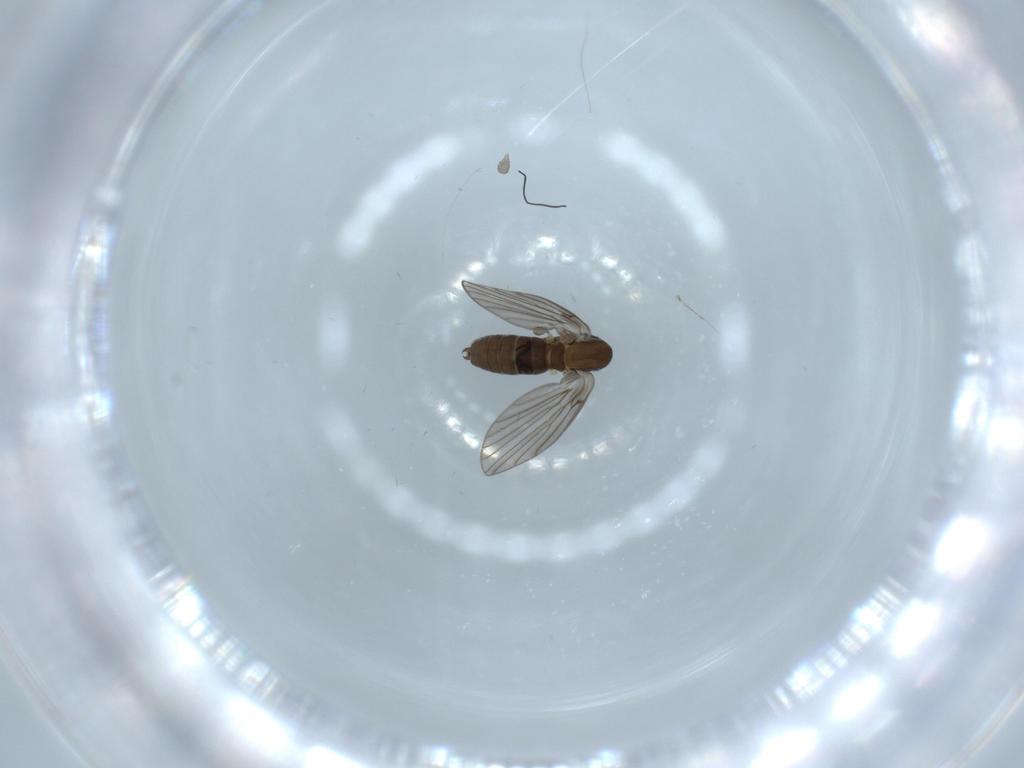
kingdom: Animalia
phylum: Arthropoda
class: Insecta
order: Diptera
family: Psychodidae
